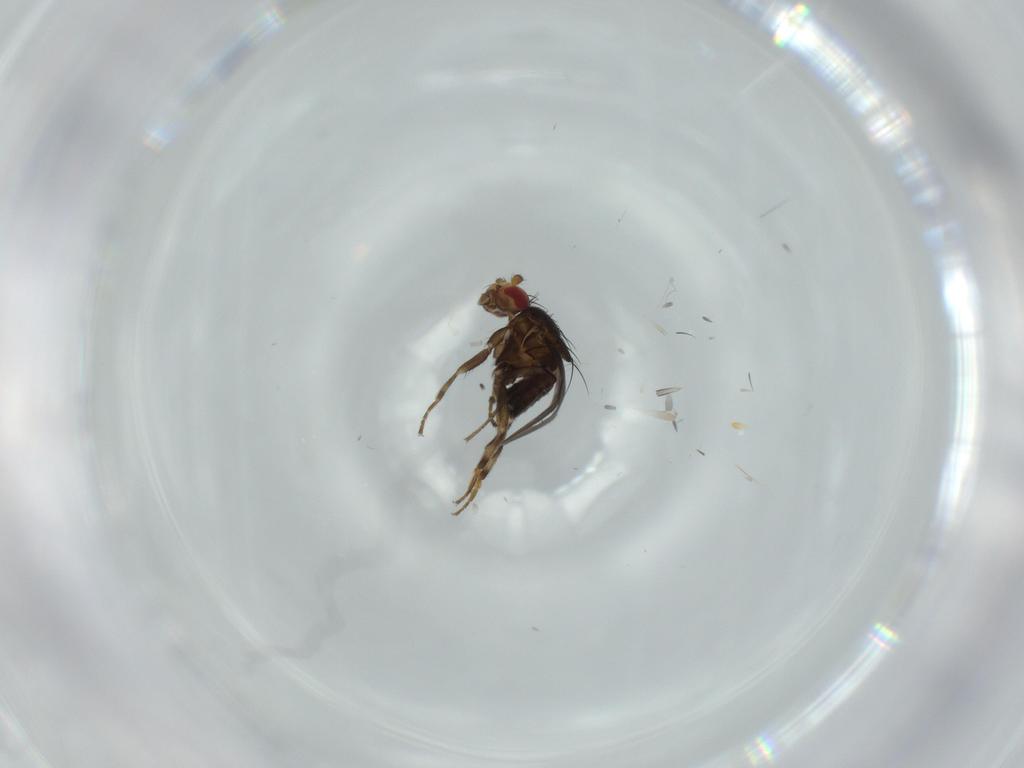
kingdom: Animalia
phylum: Arthropoda
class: Insecta
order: Diptera
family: Sphaeroceridae
